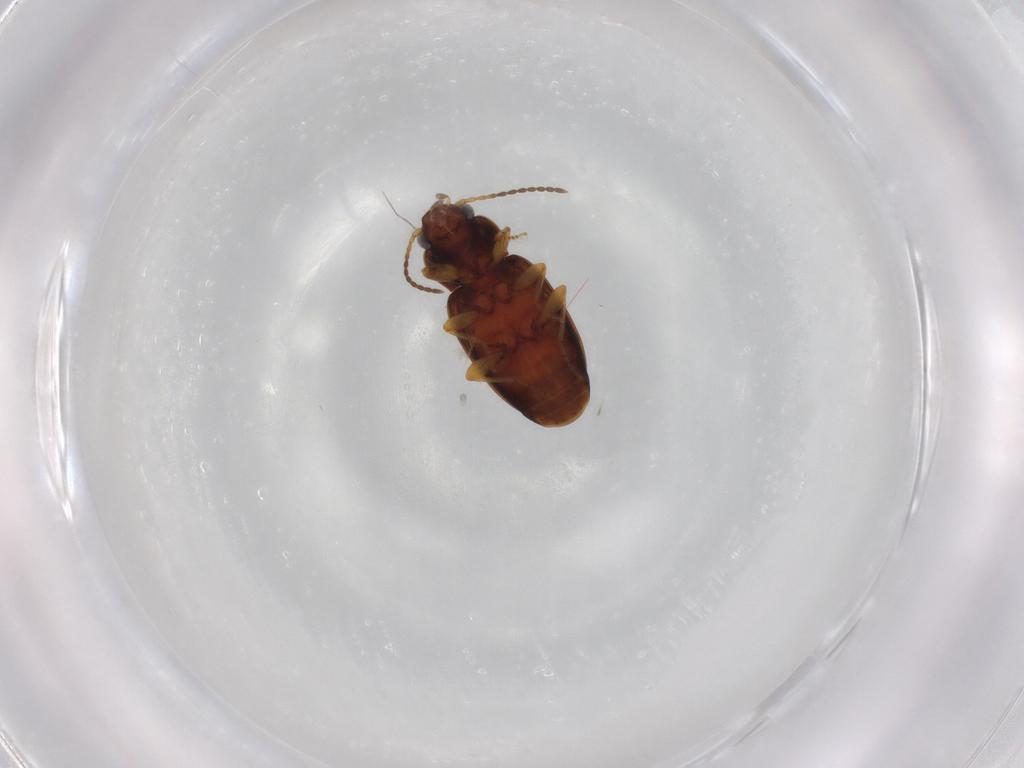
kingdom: Animalia
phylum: Arthropoda
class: Insecta
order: Coleoptera
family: Carabidae
